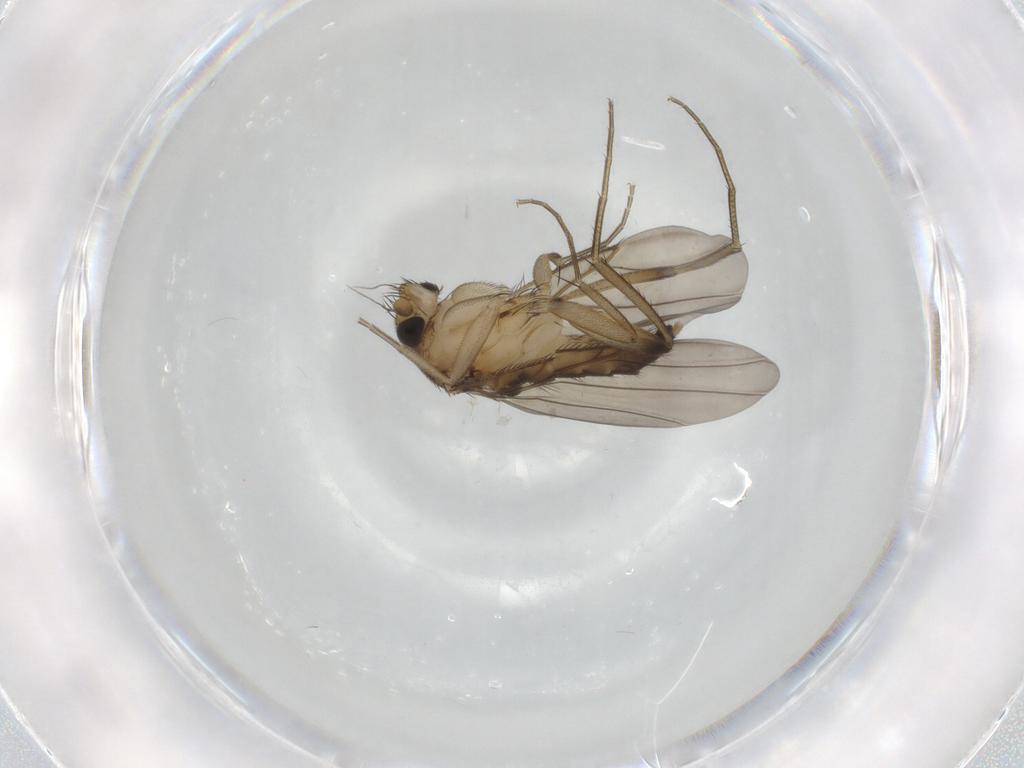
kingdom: Animalia
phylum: Arthropoda
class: Insecta
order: Diptera
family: Phoridae
